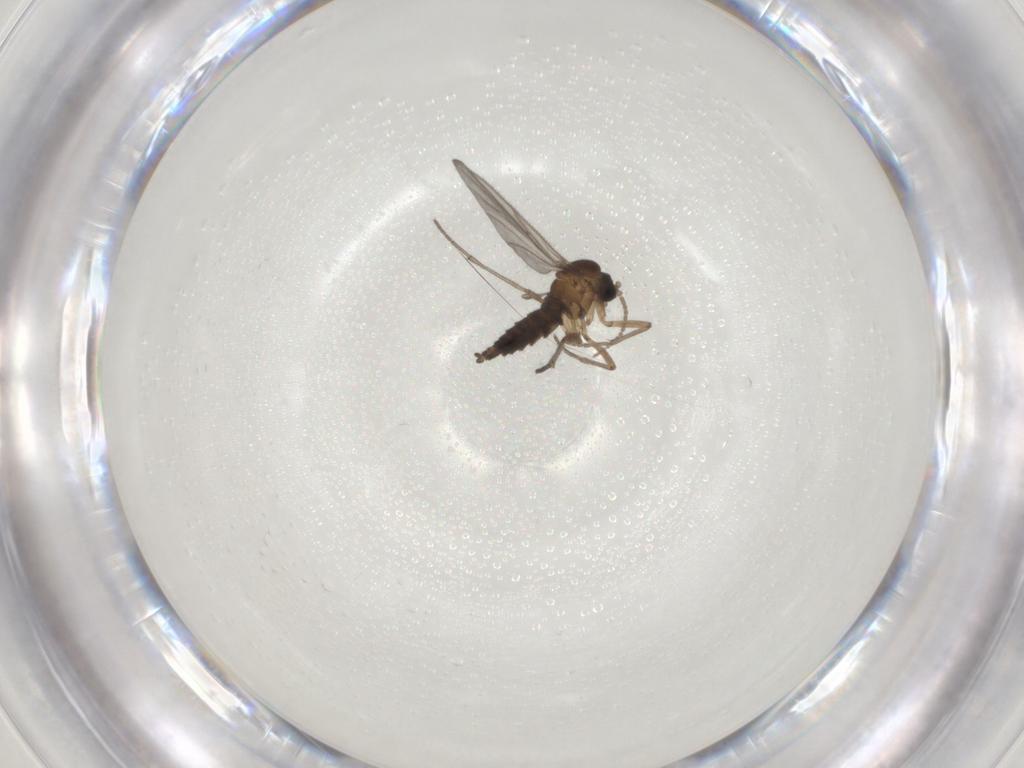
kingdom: Animalia
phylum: Arthropoda
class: Insecta
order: Diptera
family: Sciaridae
